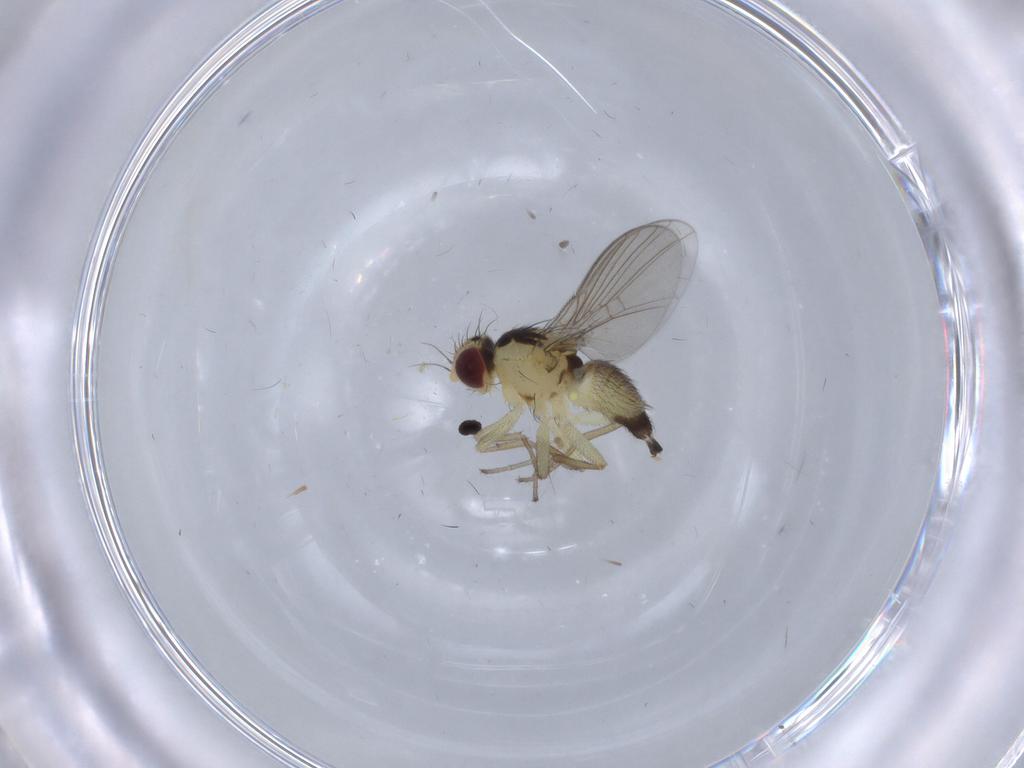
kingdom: Animalia
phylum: Arthropoda
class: Insecta
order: Diptera
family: Agromyzidae
